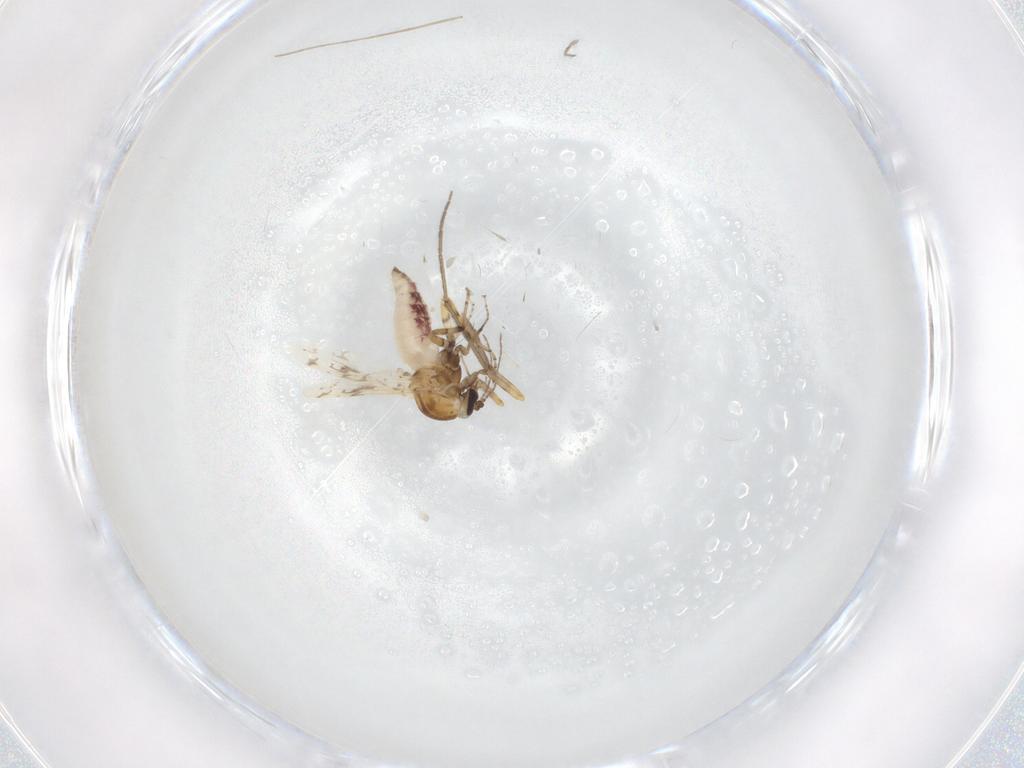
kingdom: Animalia
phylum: Arthropoda
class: Insecta
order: Diptera
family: Ceratopogonidae
